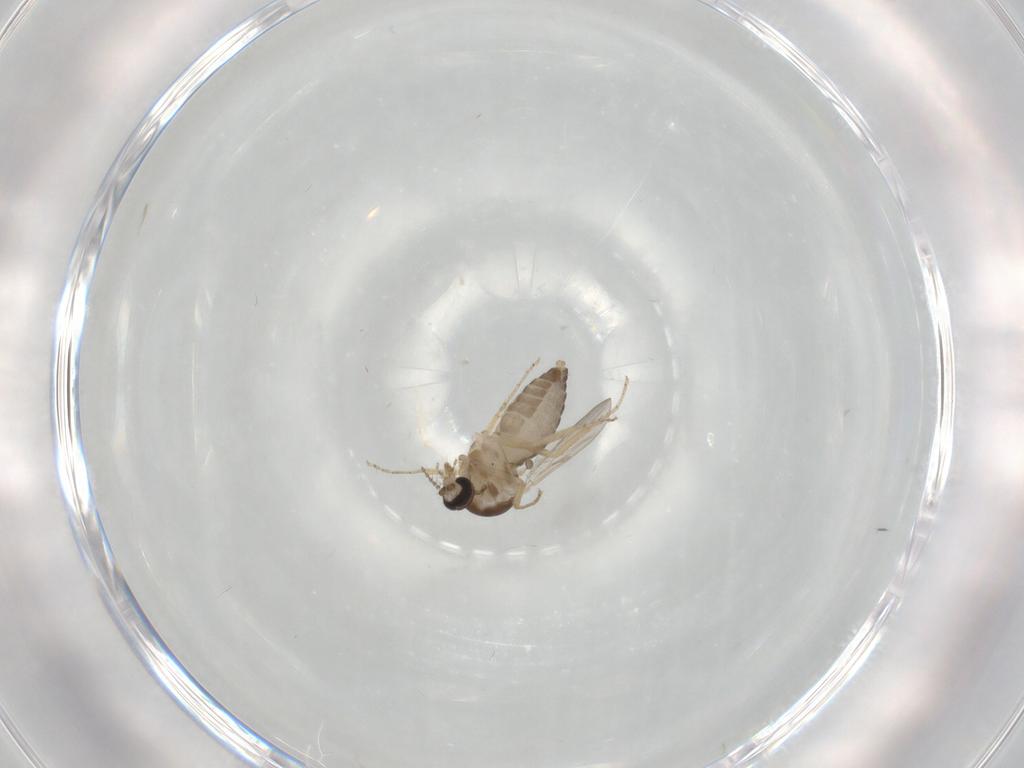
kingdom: Animalia
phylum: Arthropoda
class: Insecta
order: Diptera
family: Ceratopogonidae
